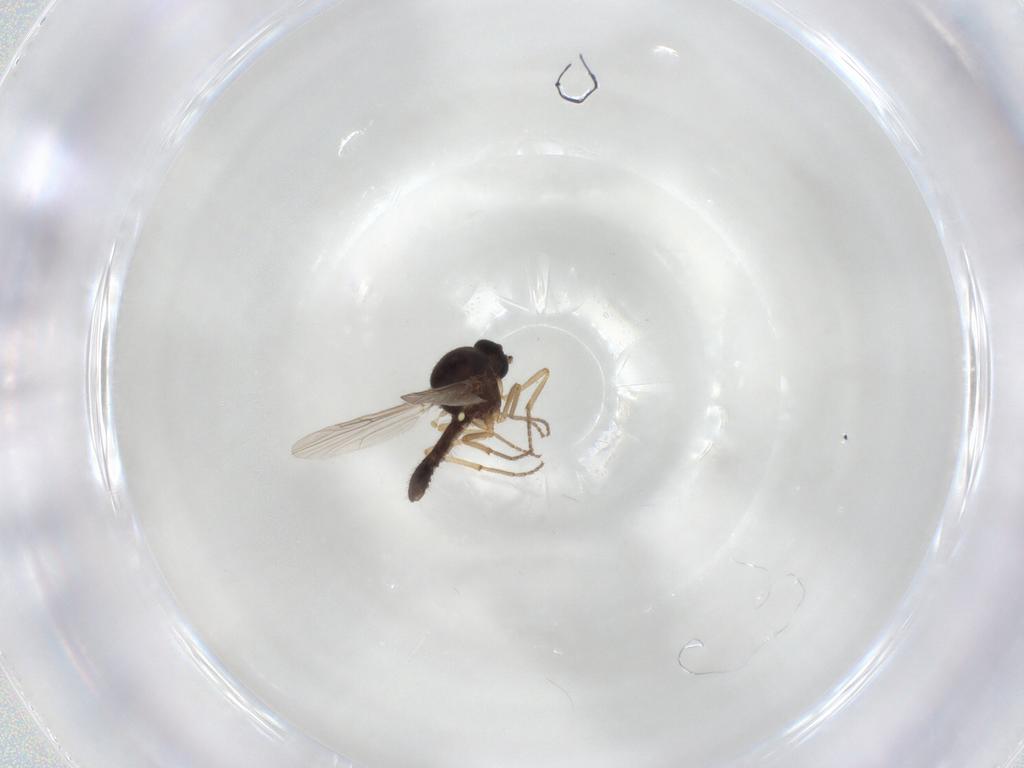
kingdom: Animalia
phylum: Arthropoda
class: Insecta
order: Diptera
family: Ceratopogonidae
